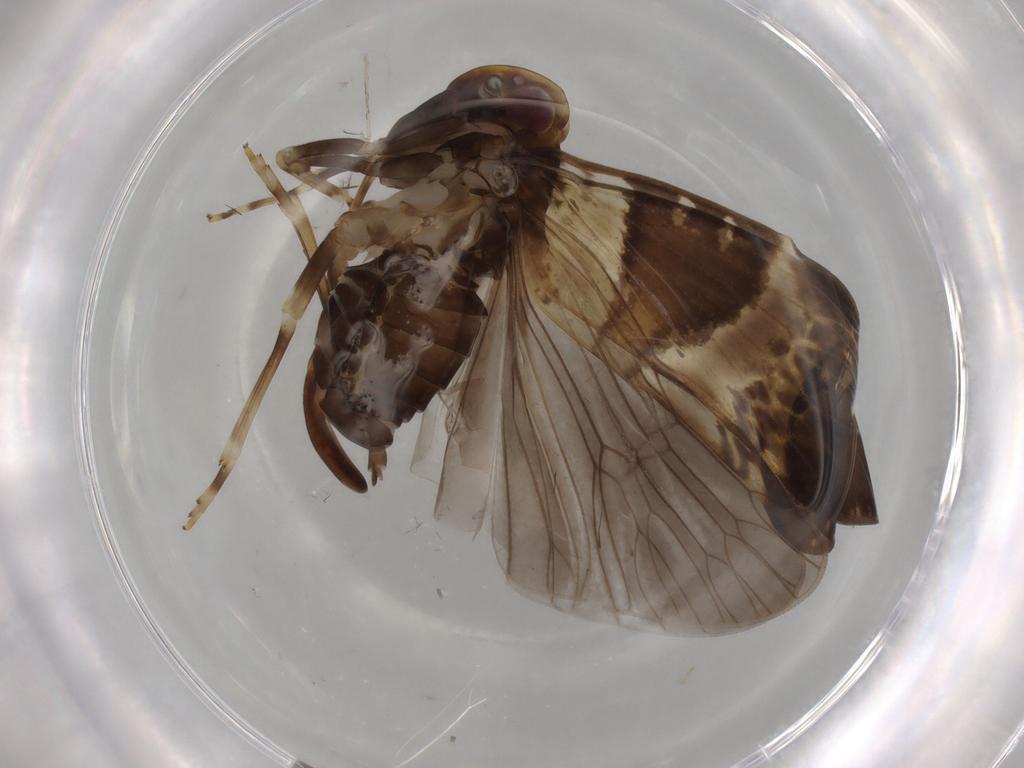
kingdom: Animalia
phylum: Arthropoda
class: Insecta
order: Hemiptera
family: Cixiidae
